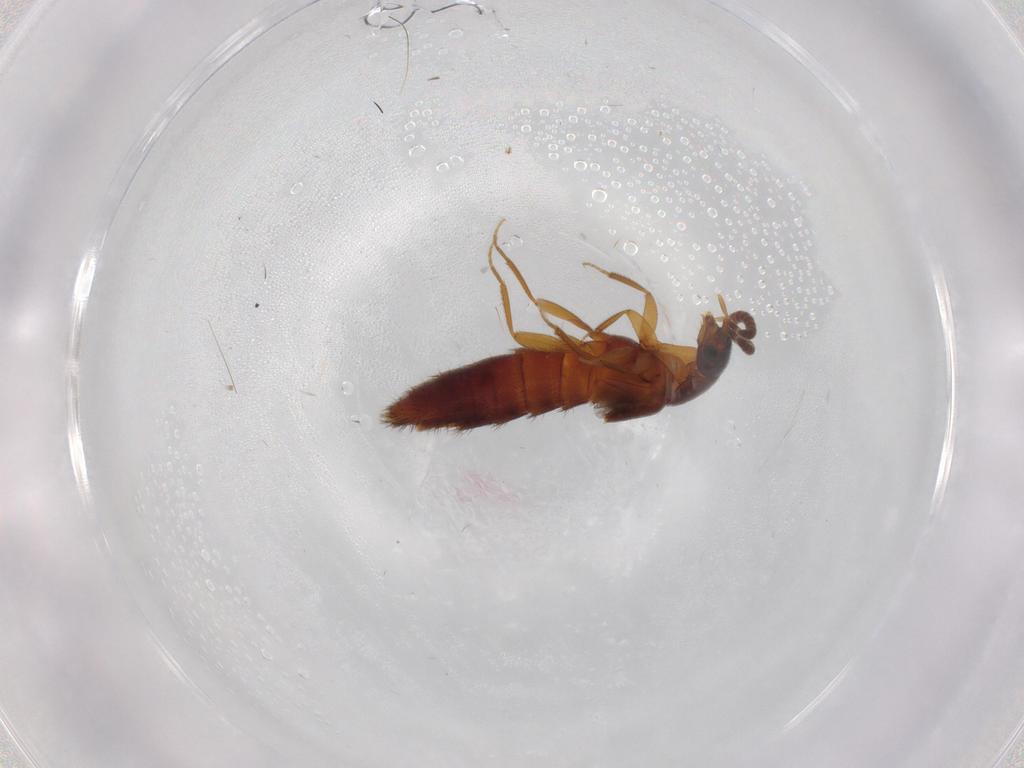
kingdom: Animalia
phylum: Arthropoda
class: Insecta
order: Coleoptera
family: Staphylinidae
